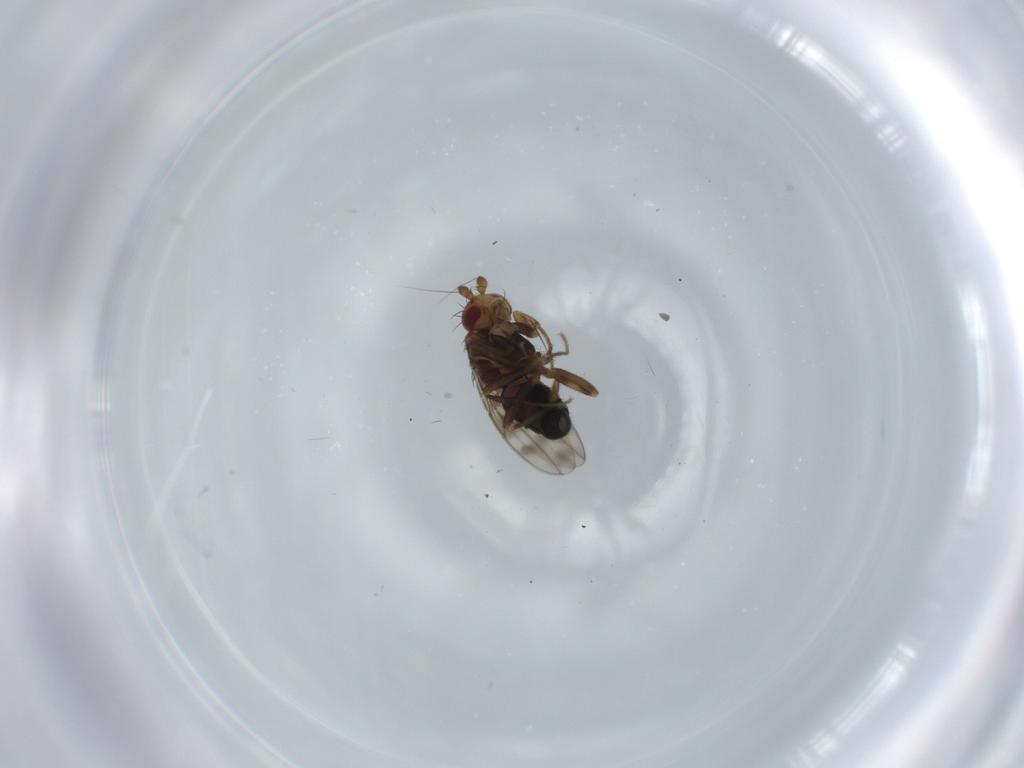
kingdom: Animalia
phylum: Arthropoda
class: Insecta
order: Diptera
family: Sphaeroceridae
